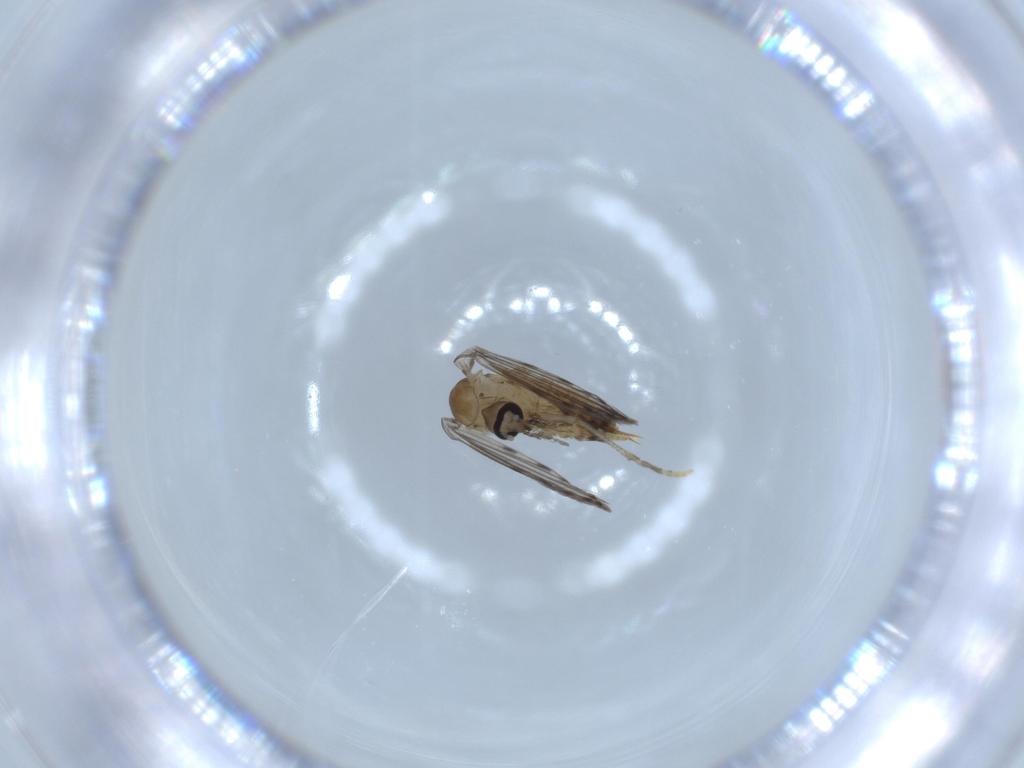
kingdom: Animalia
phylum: Arthropoda
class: Insecta
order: Diptera
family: Psychodidae
